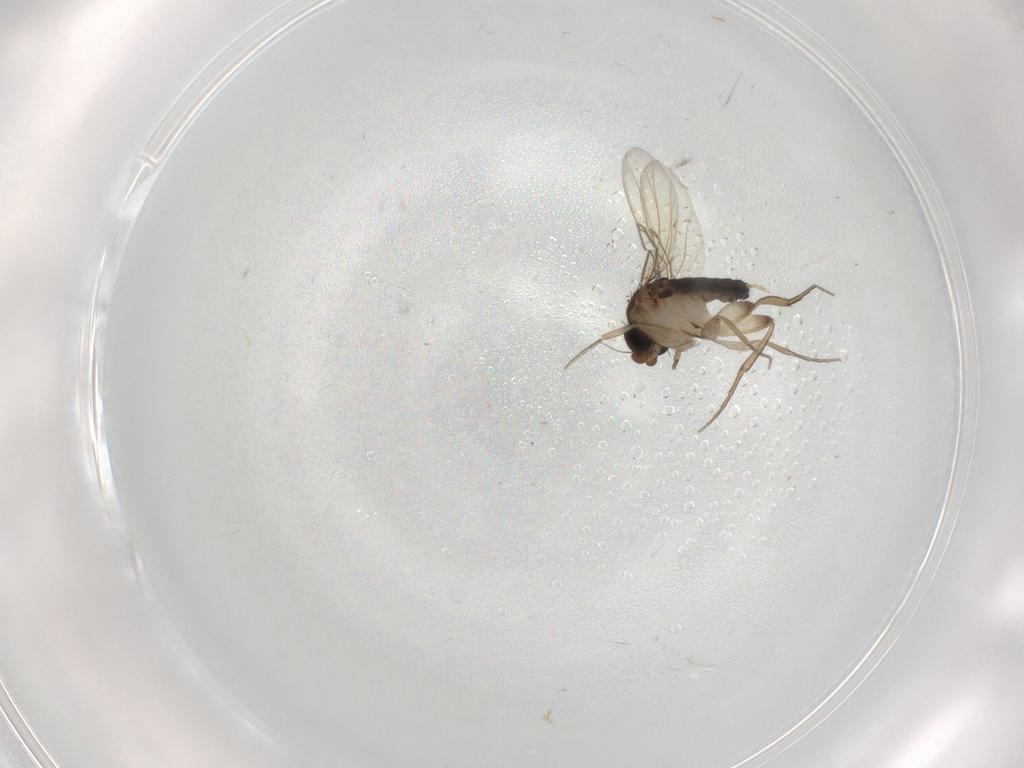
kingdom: Animalia
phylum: Arthropoda
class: Insecta
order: Diptera
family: Phoridae
